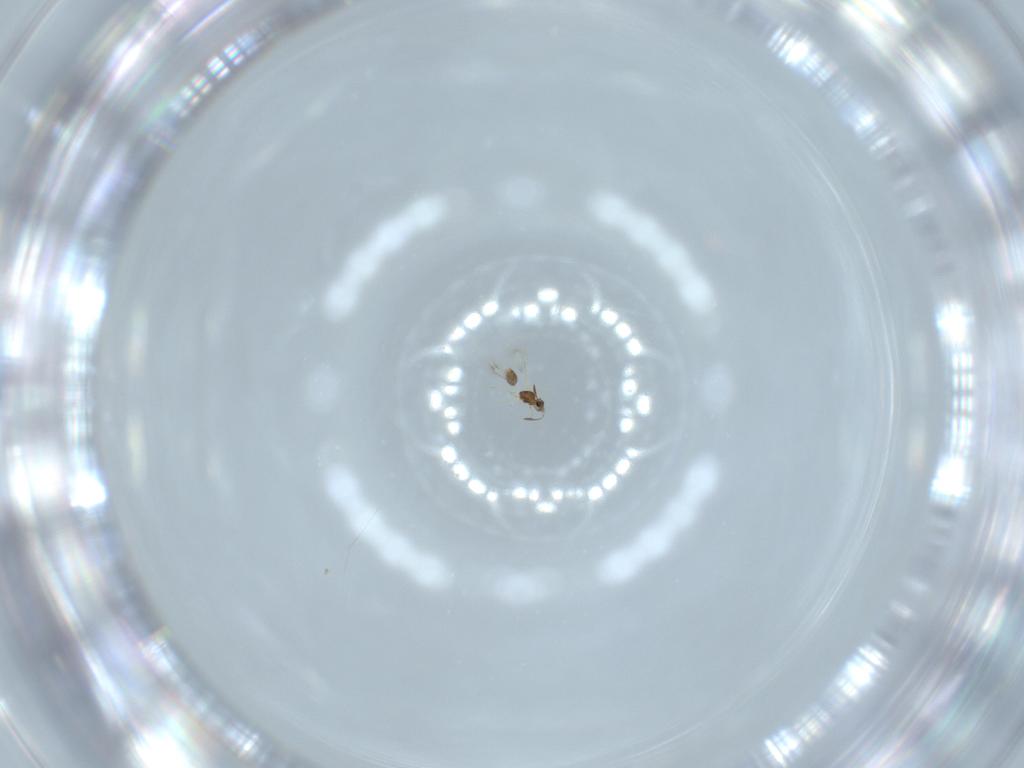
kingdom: Animalia
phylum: Arthropoda
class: Insecta
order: Hymenoptera
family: Mymarommatidae
